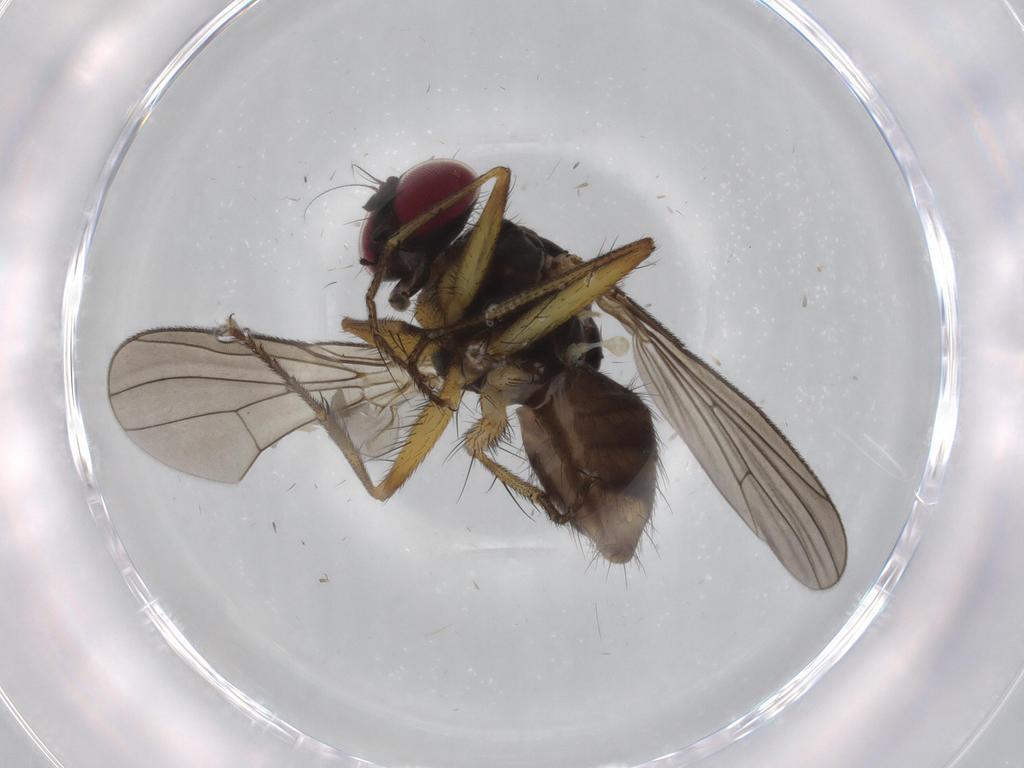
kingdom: Animalia
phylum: Arthropoda
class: Insecta
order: Diptera
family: Anthomyiidae
